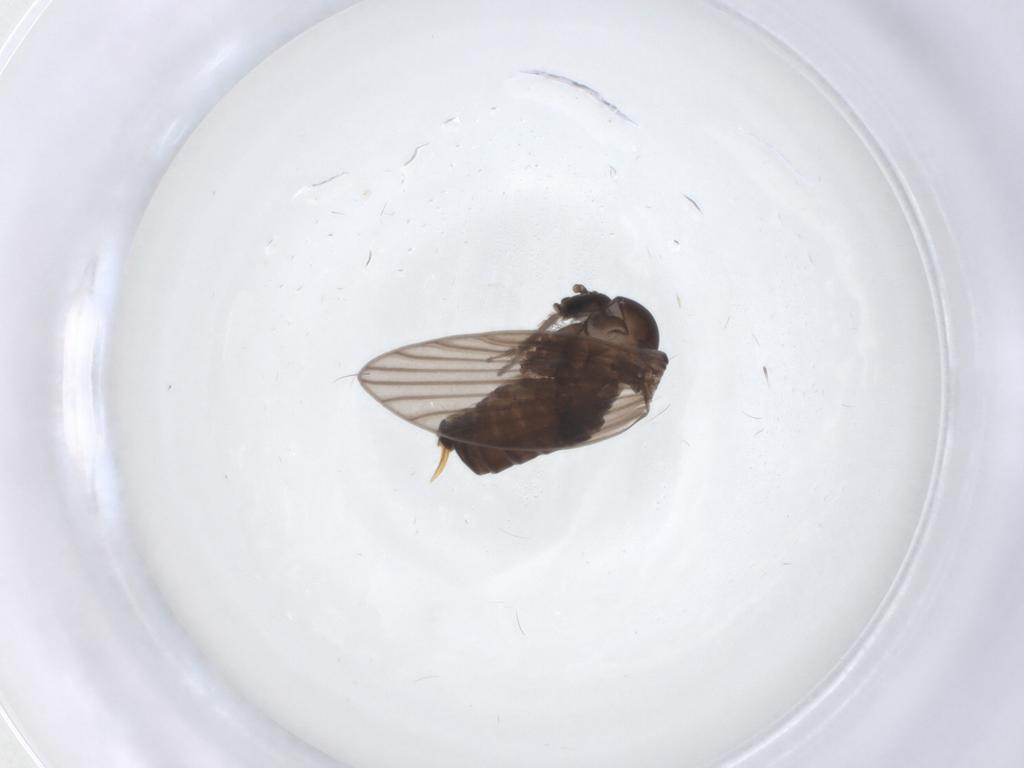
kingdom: Animalia
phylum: Arthropoda
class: Insecta
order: Diptera
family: Psychodidae
